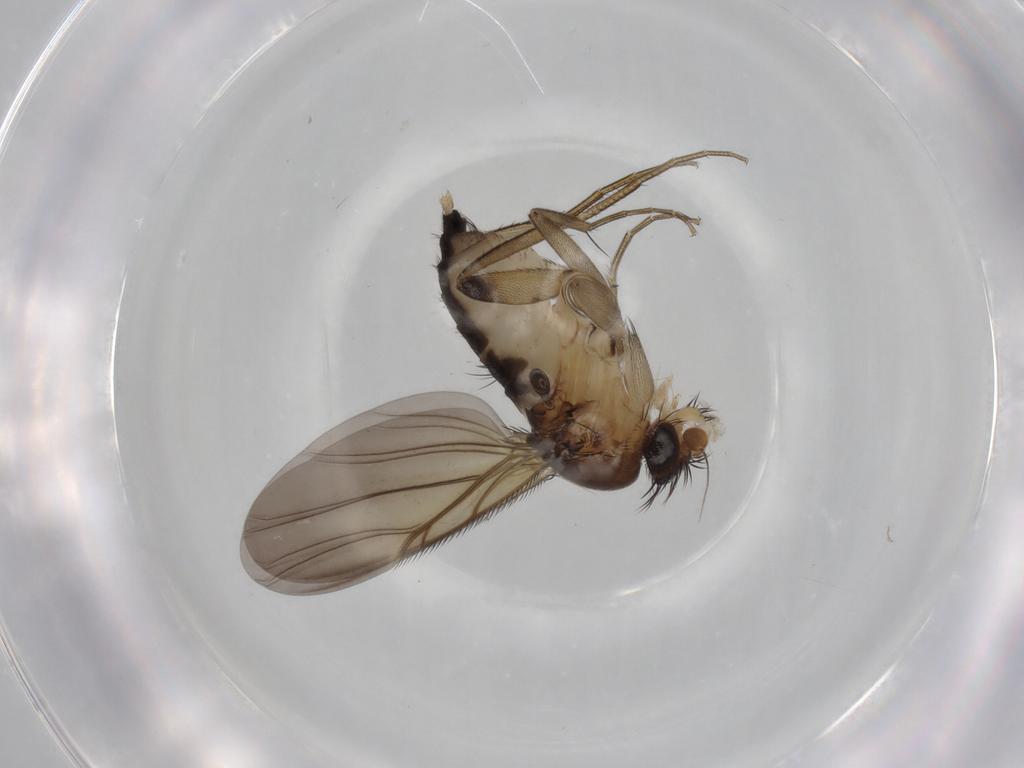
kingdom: Animalia
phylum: Arthropoda
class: Insecta
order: Diptera
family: Phoridae
